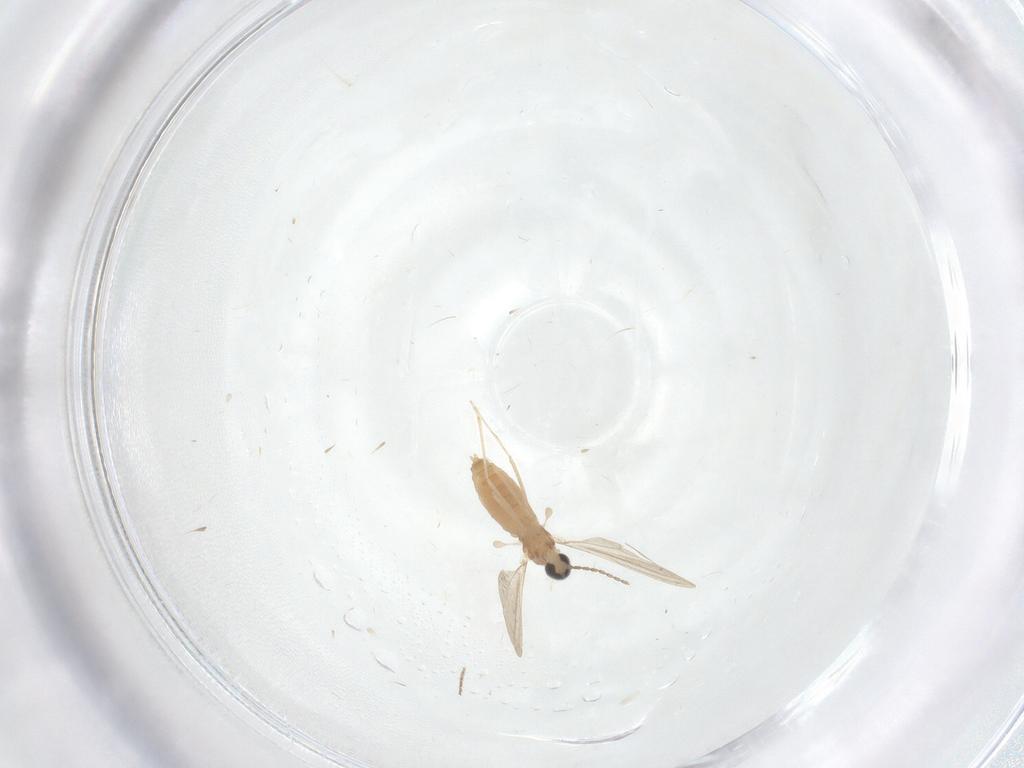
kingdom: Animalia
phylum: Arthropoda
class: Insecta
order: Diptera
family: Cecidomyiidae
